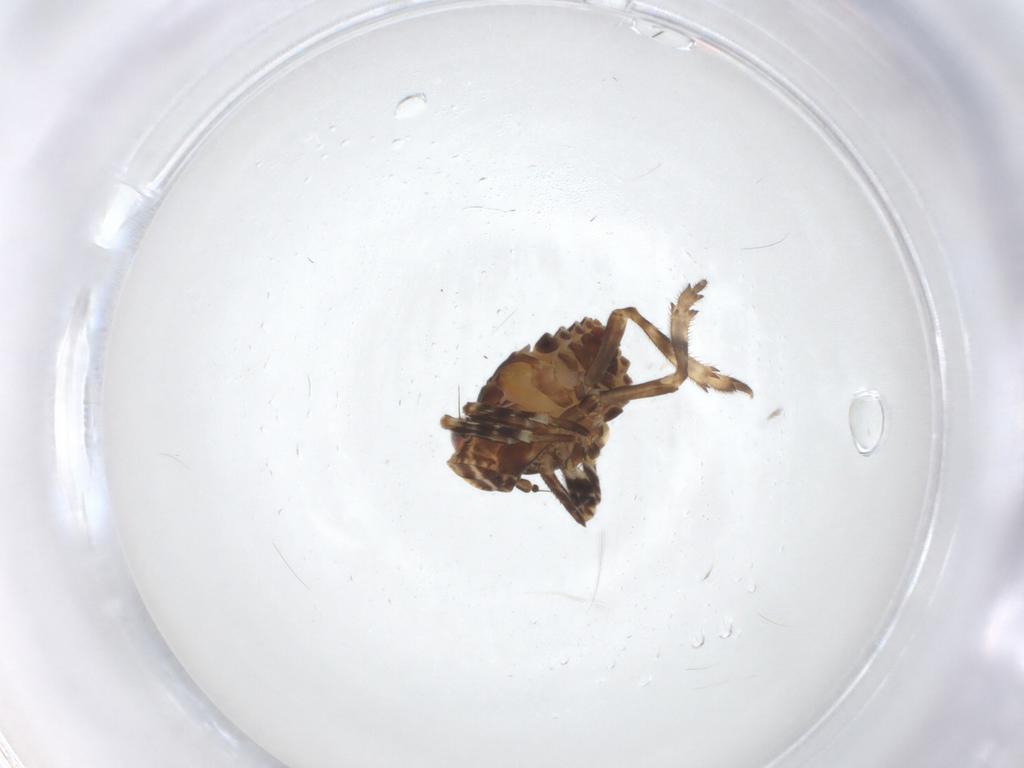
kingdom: Animalia
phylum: Arthropoda
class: Insecta
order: Hemiptera
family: Eurybrachidae
